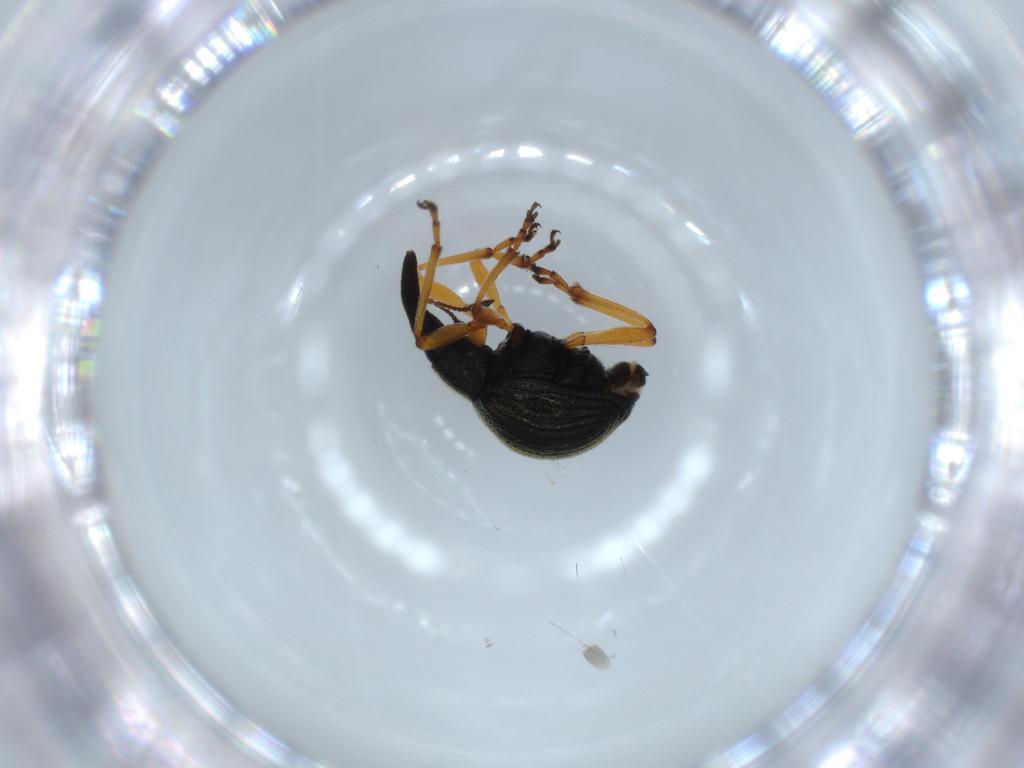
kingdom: Animalia
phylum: Arthropoda
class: Insecta
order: Coleoptera
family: Brentidae
